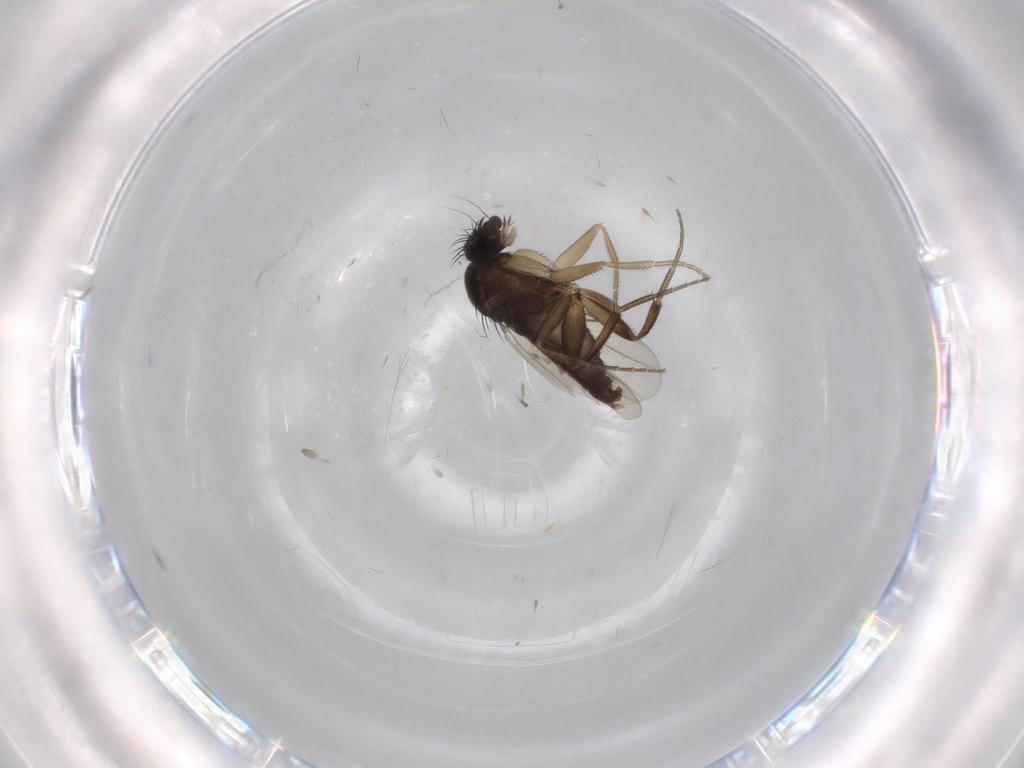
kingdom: Animalia
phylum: Arthropoda
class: Insecta
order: Diptera
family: Phoridae
